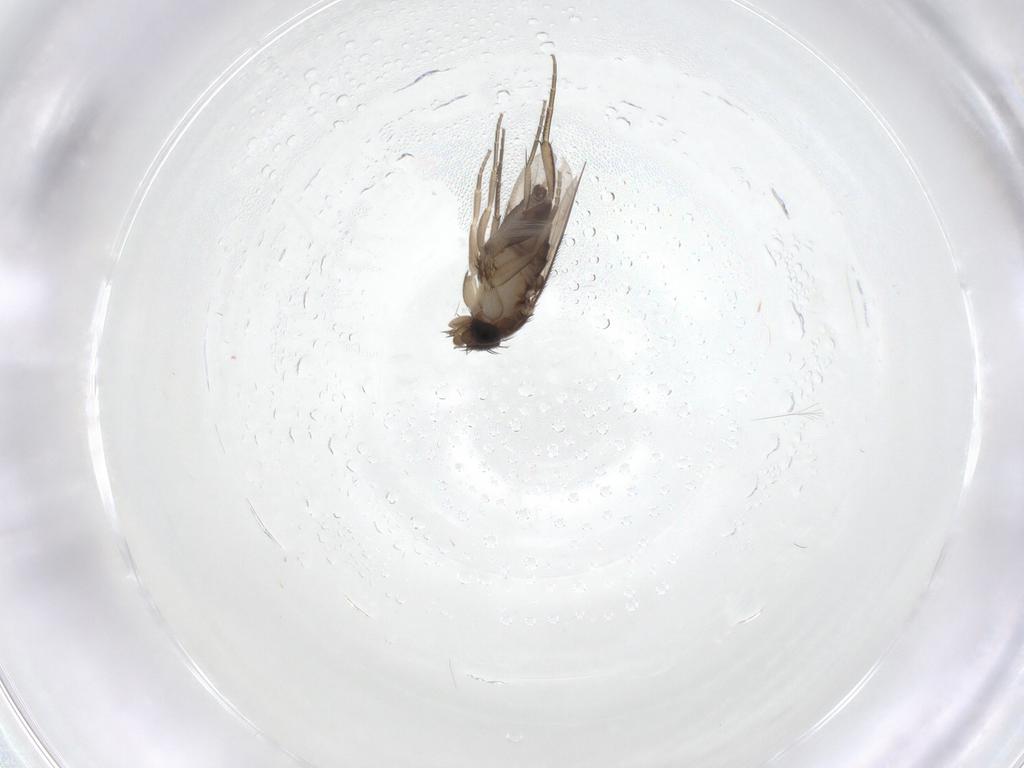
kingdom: Animalia
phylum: Arthropoda
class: Insecta
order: Diptera
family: Phoridae
